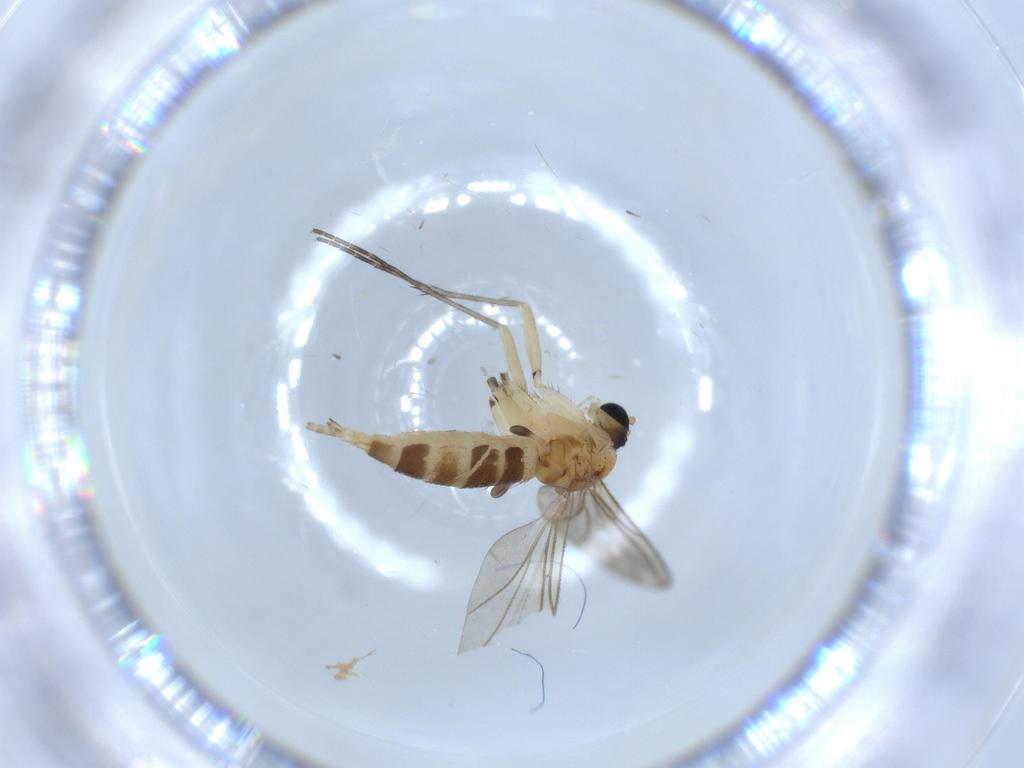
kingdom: Animalia
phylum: Arthropoda
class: Insecta
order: Diptera
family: Sciaridae
